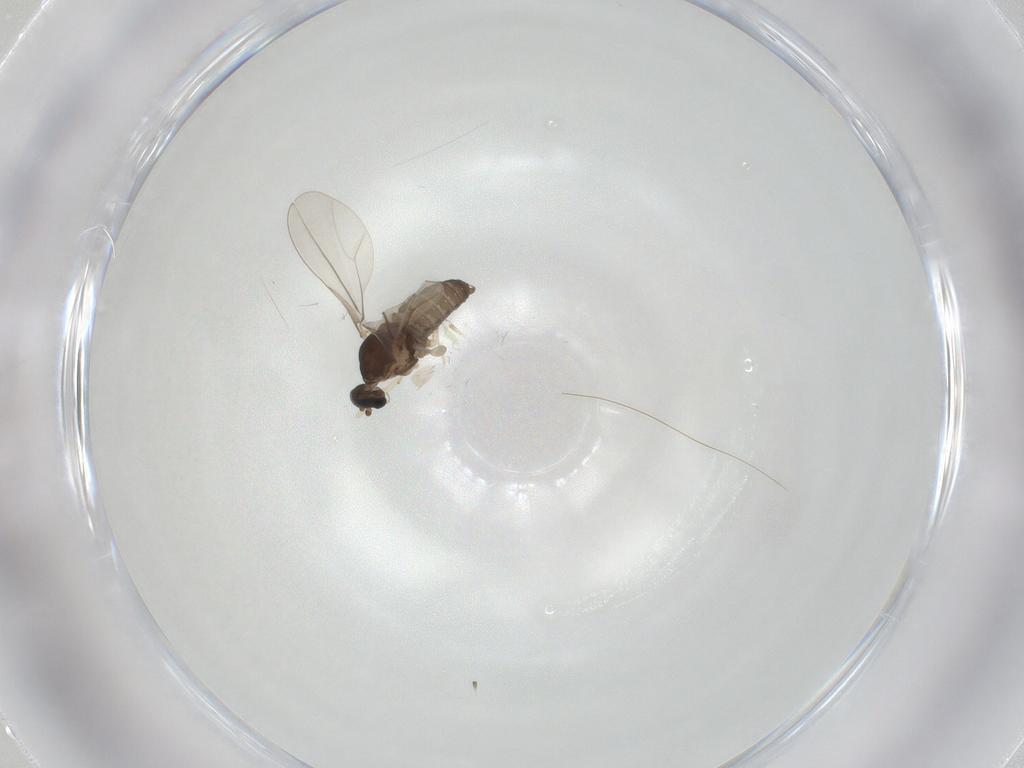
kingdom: Animalia
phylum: Arthropoda
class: Insecta
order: Diptera
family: Cecidomyiidae
